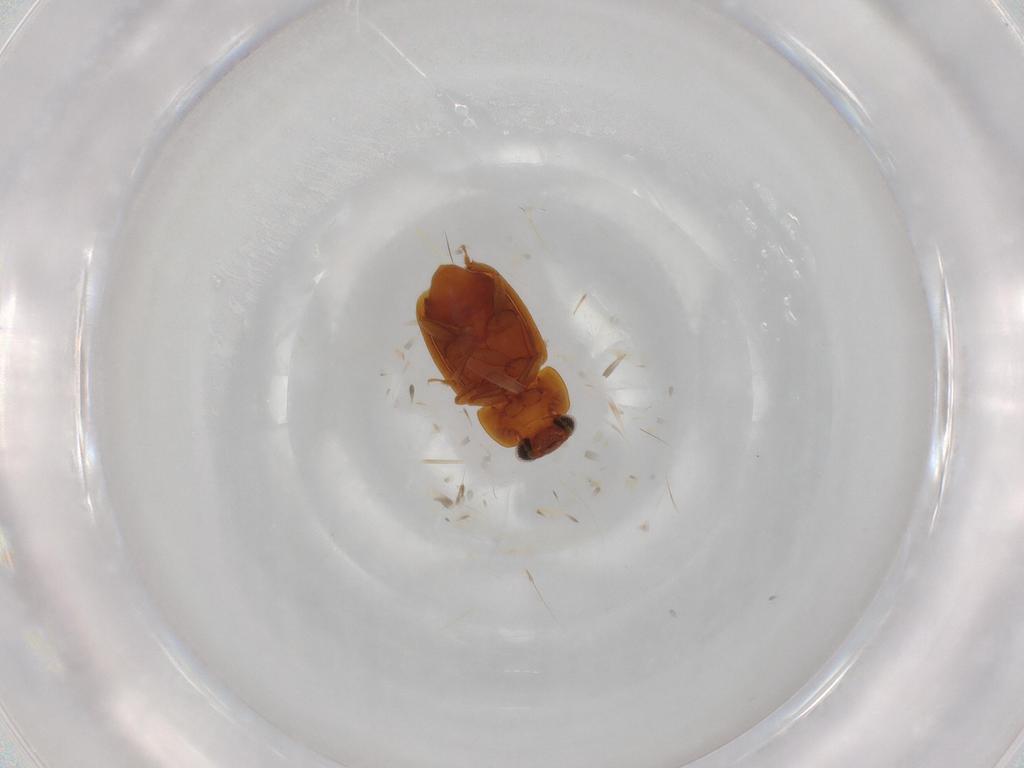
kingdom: Animalia
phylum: Arthropoda
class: Insecta
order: Coleoptera
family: Nitidulidae
